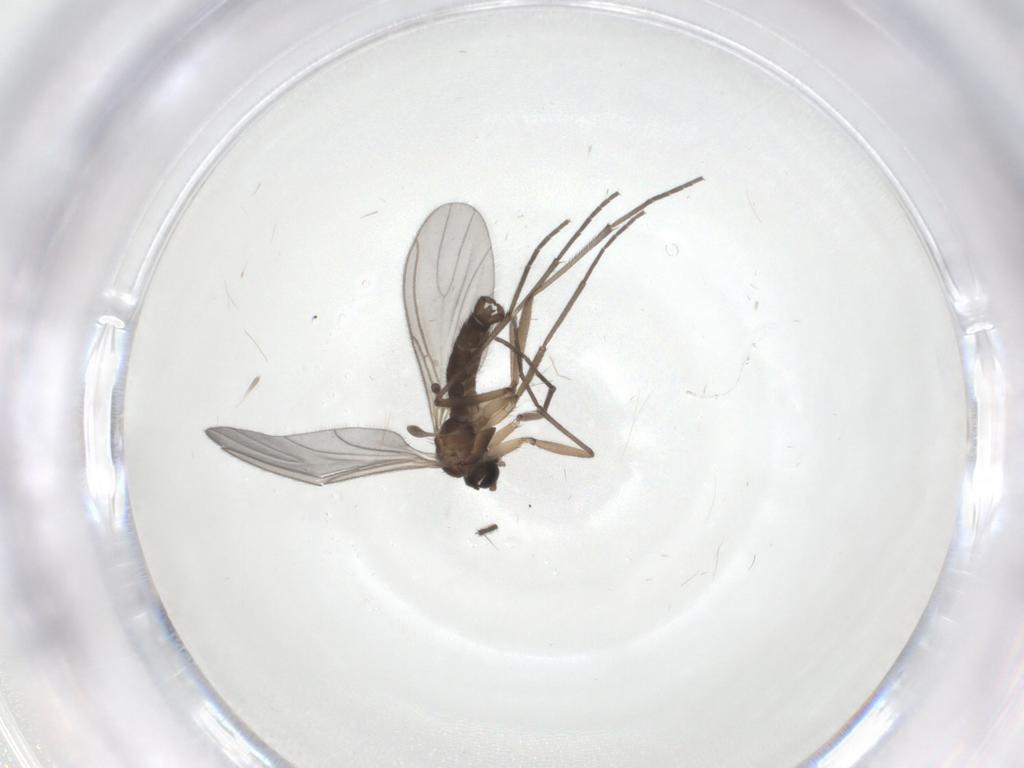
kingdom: Animalia
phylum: Arthropoda
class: Insecta
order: Diptera
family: Sciaridae
